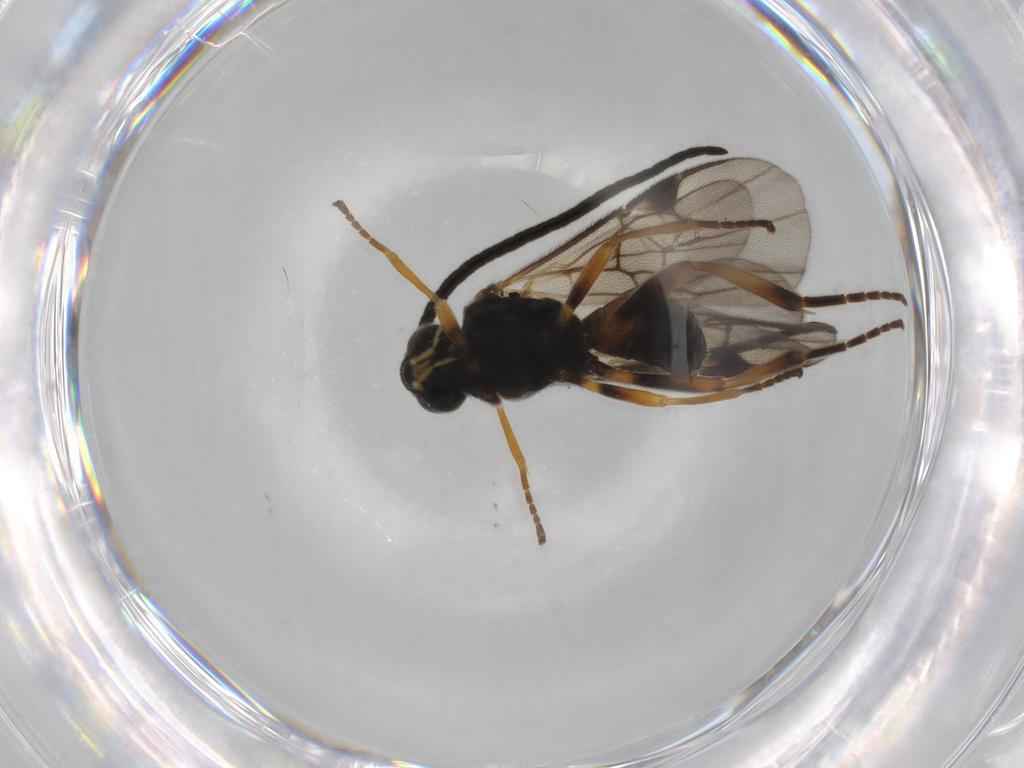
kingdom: Animalia
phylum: Arthropoda
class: Insecta
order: Hymenoptera
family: Braconidae
